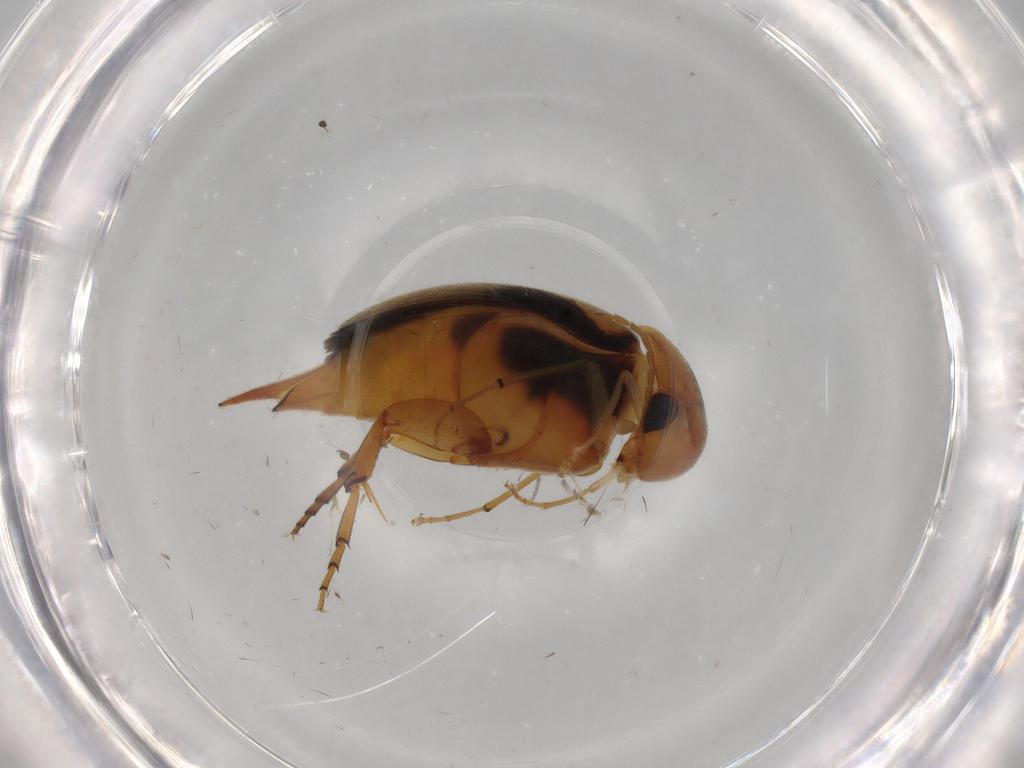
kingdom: Animalia
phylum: Arthropoda
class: Insecta
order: Coleoptera
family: Mordellidae
